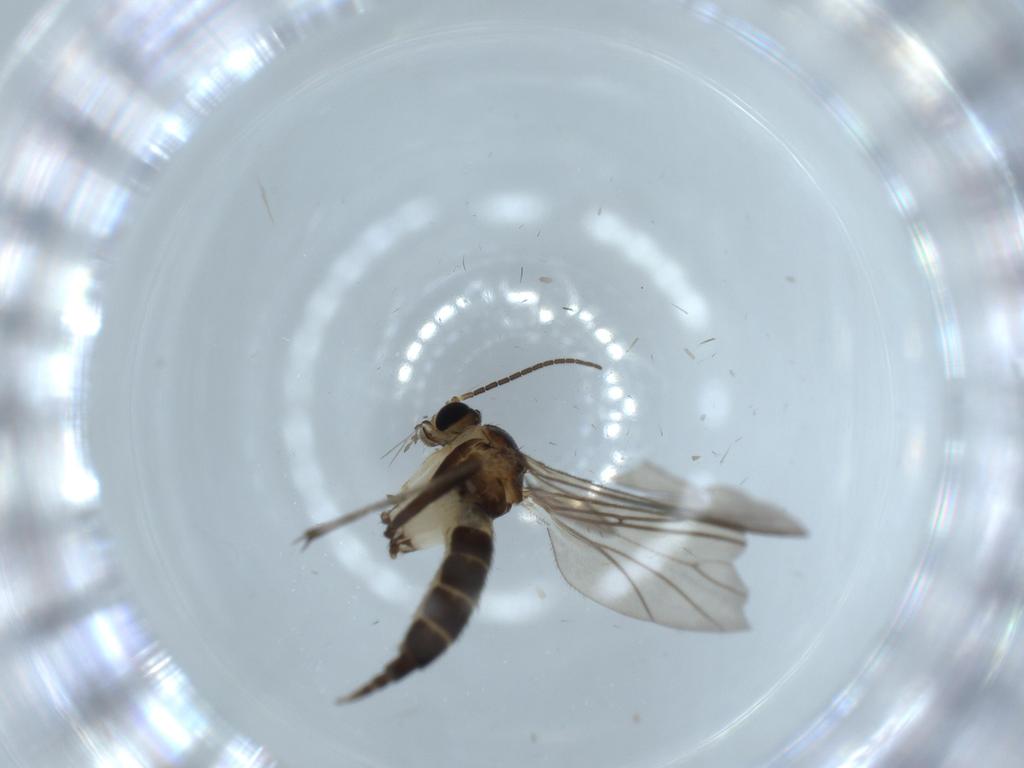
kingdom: Animalia
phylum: Arthropoda
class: Insecta
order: Diptera
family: Sciaridae
